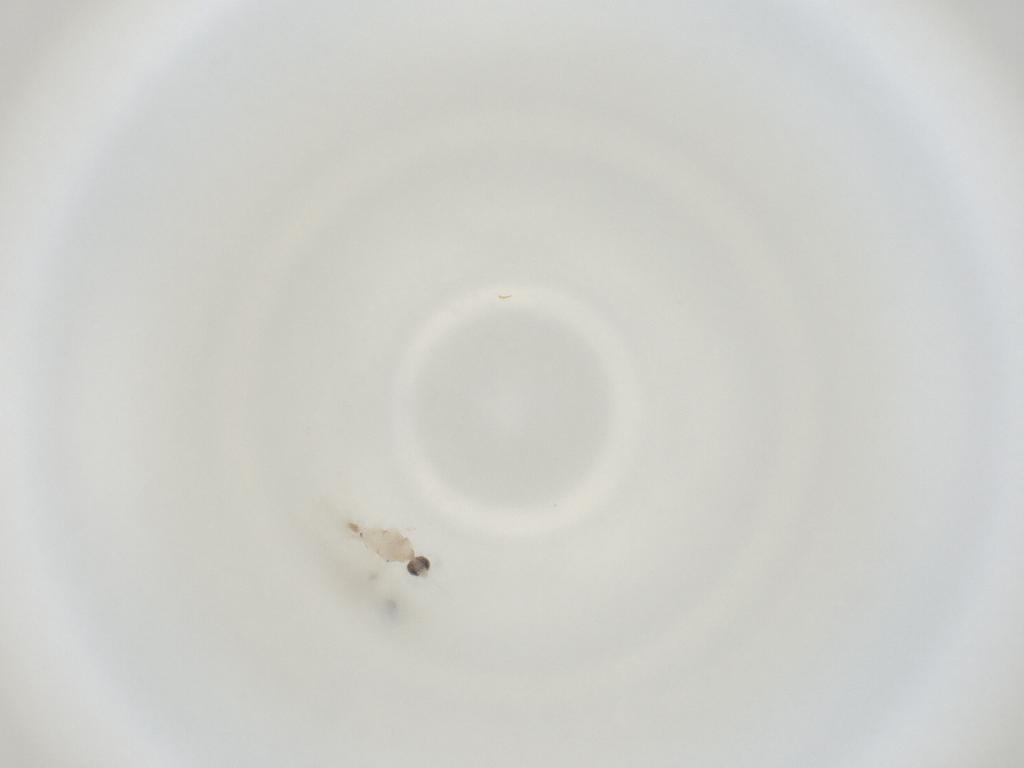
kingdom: Animalia
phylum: Arthropoda
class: Insecta
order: Diptera
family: Cecidomyiidae
